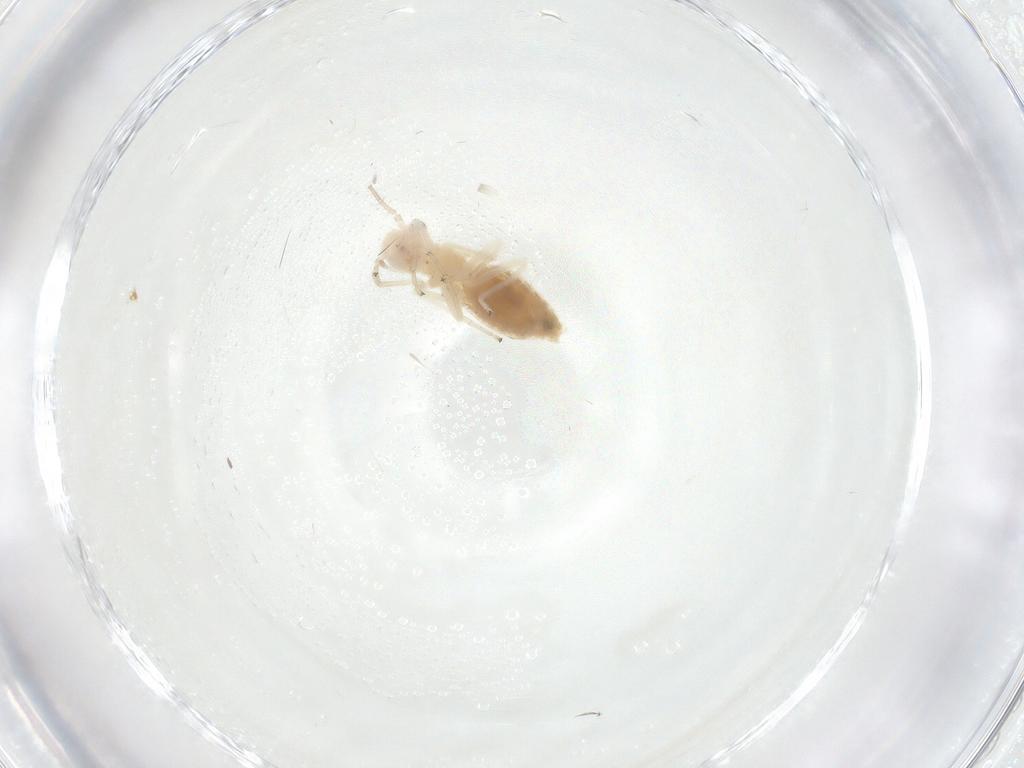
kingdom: Animalia
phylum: Arthropoda
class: Insecta
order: Psocodea
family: Caeciliusidae
